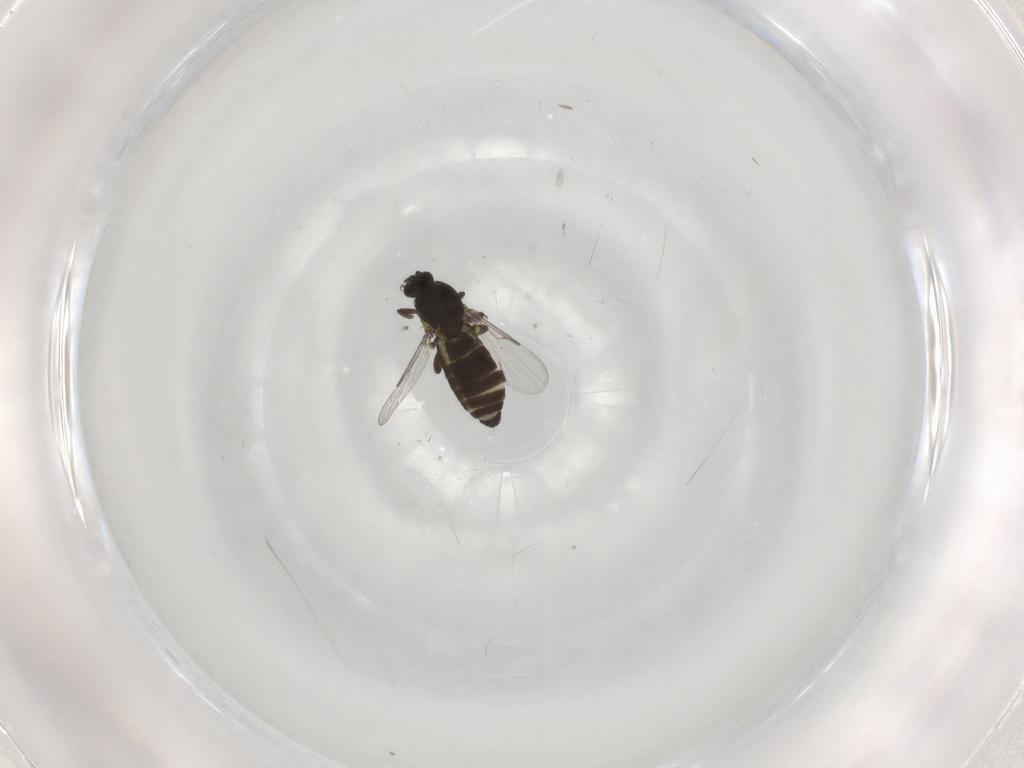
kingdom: Animalia
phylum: Arthropoda
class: Insecta
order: Diptera
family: Ceratopogonidae
